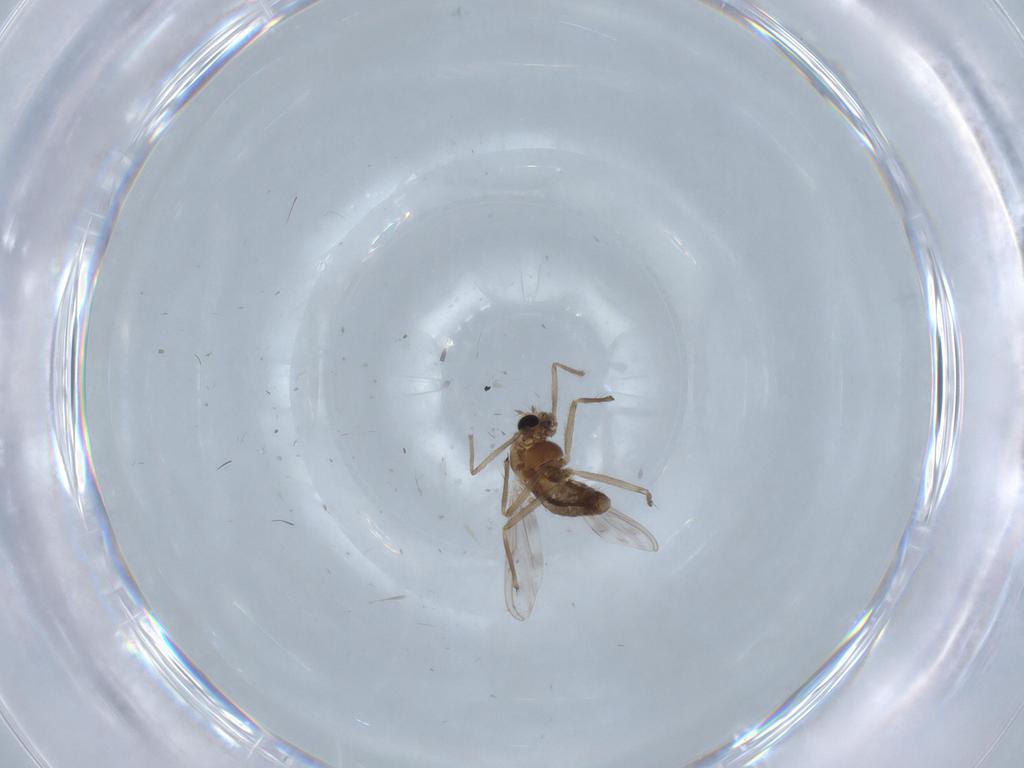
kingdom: Animalia
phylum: Arthropoda
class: Insecta
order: Diptera
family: Chironomidae
